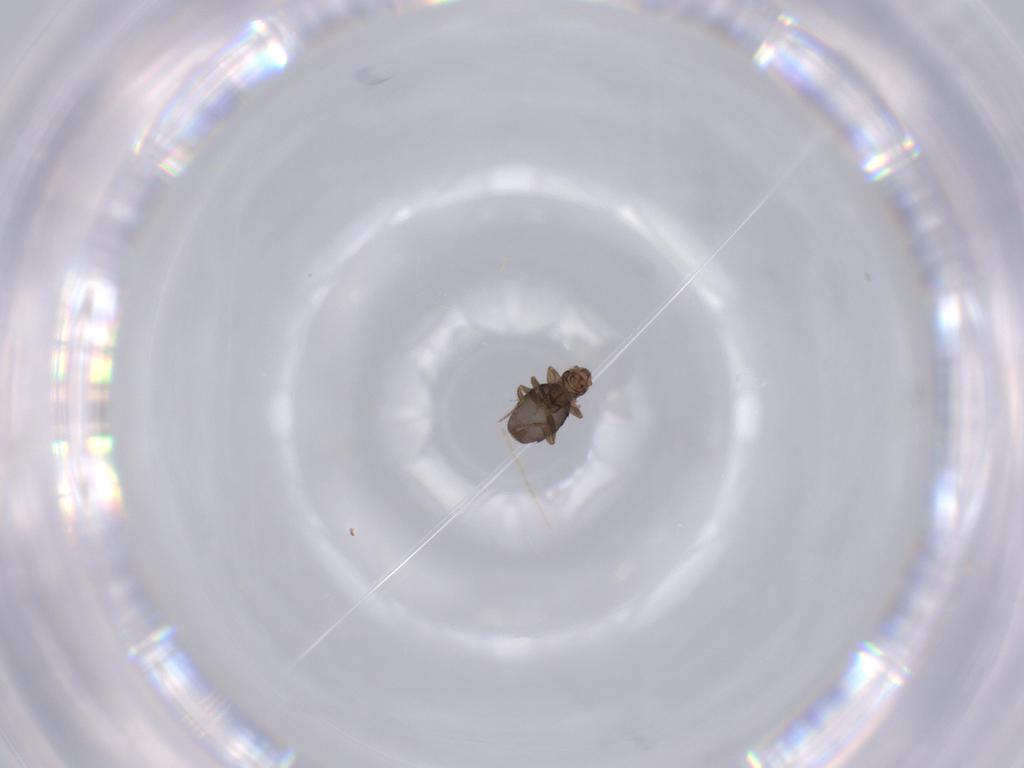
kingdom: Animalia
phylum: Arthropoda
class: Insecta
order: Diptera
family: Phoridae
